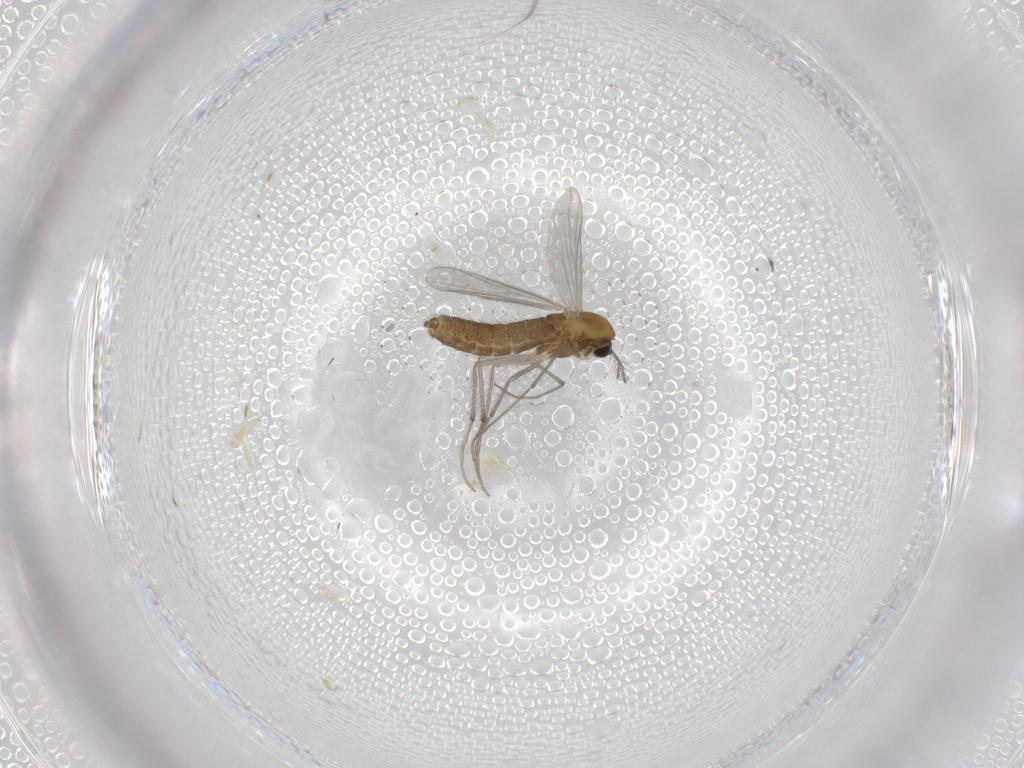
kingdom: Animalia
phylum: Arthropoda
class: Insecta
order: Diptera
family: Chironomidae
